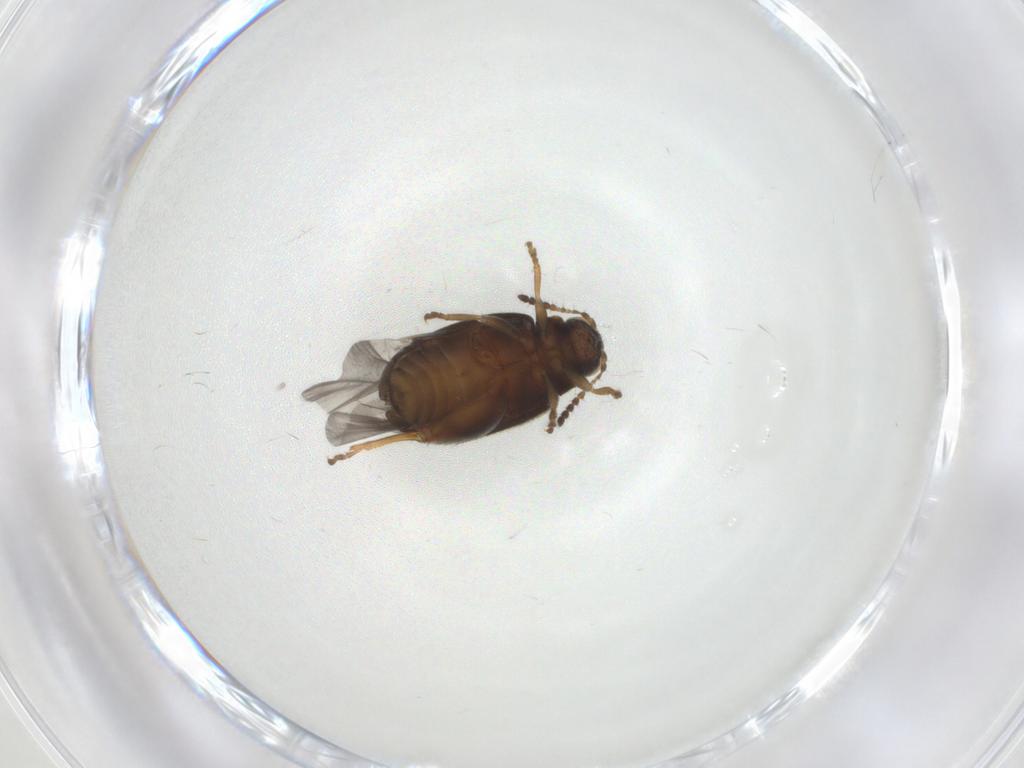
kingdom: Animalia
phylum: Arthropoda
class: Insecta
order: Coleoptera
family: Chrysomelidae
